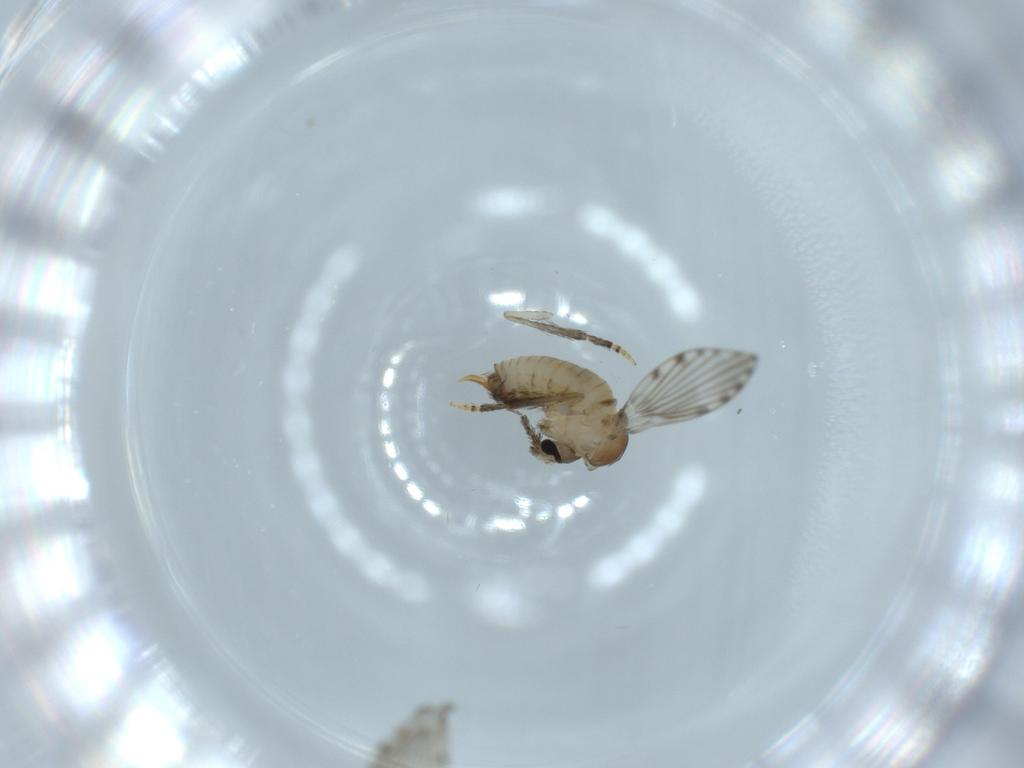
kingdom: Animalia
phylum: Arthropoda
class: Insecta
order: Diptera
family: Psychodidae
